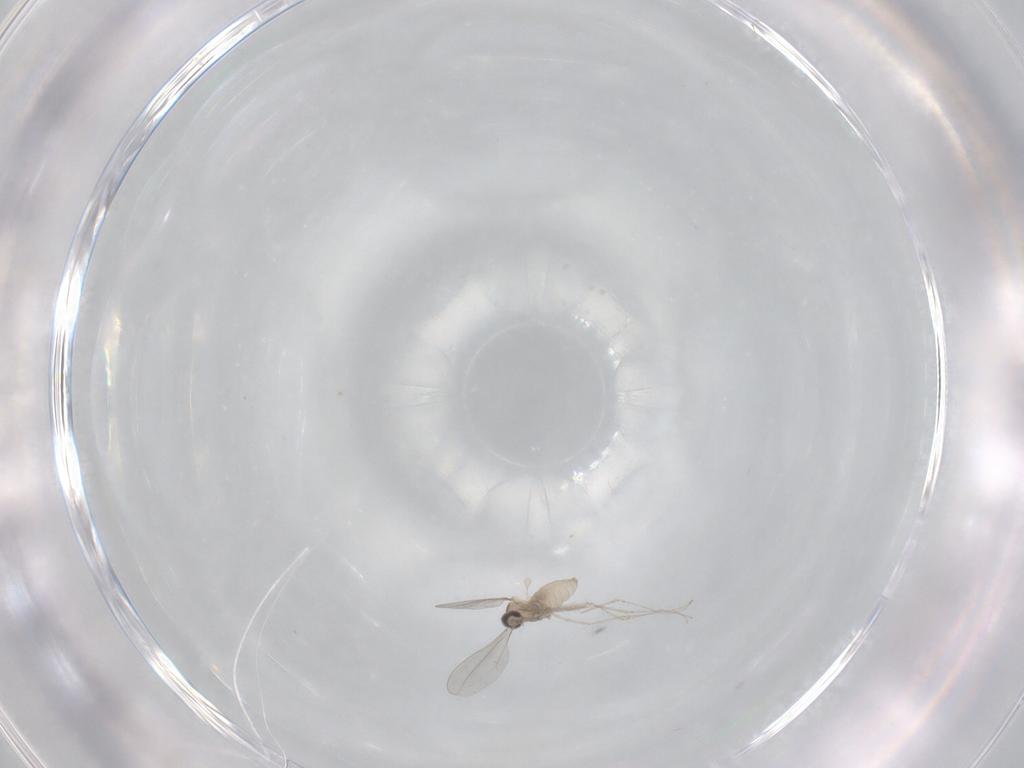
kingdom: Animalia
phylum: Arthropoda
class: Insecta
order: Diptera
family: Cecidomyiidae
